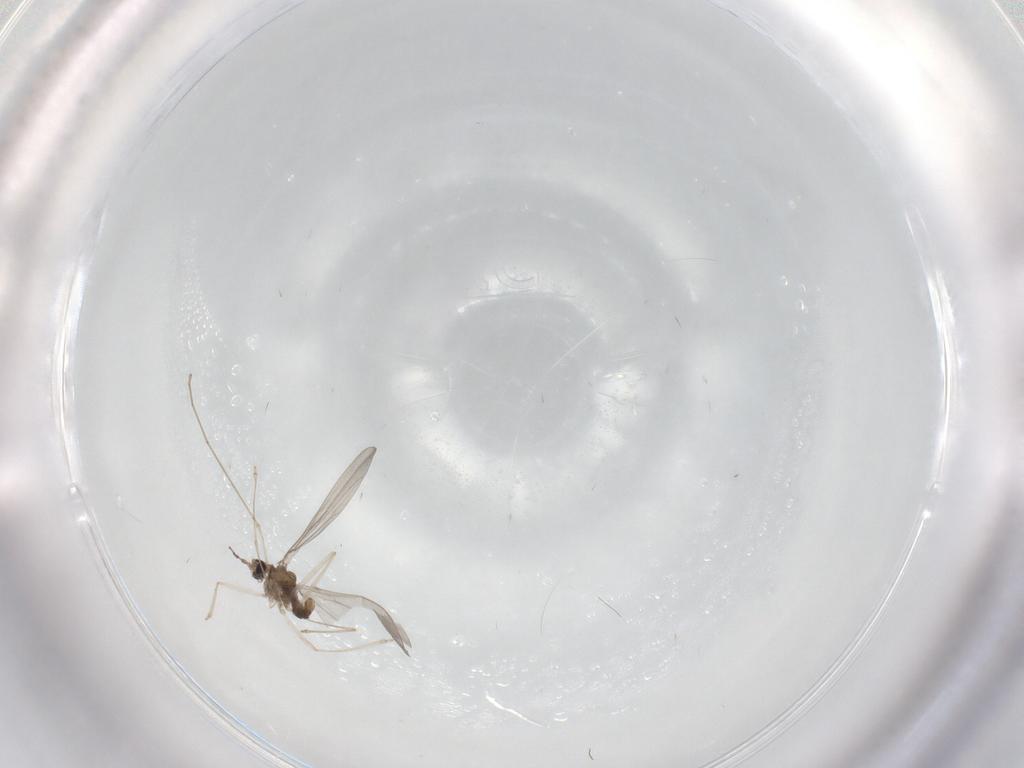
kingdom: Animalia
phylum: Arthropoda
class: Insecta
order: Diptera
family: Cecidomyiidae
